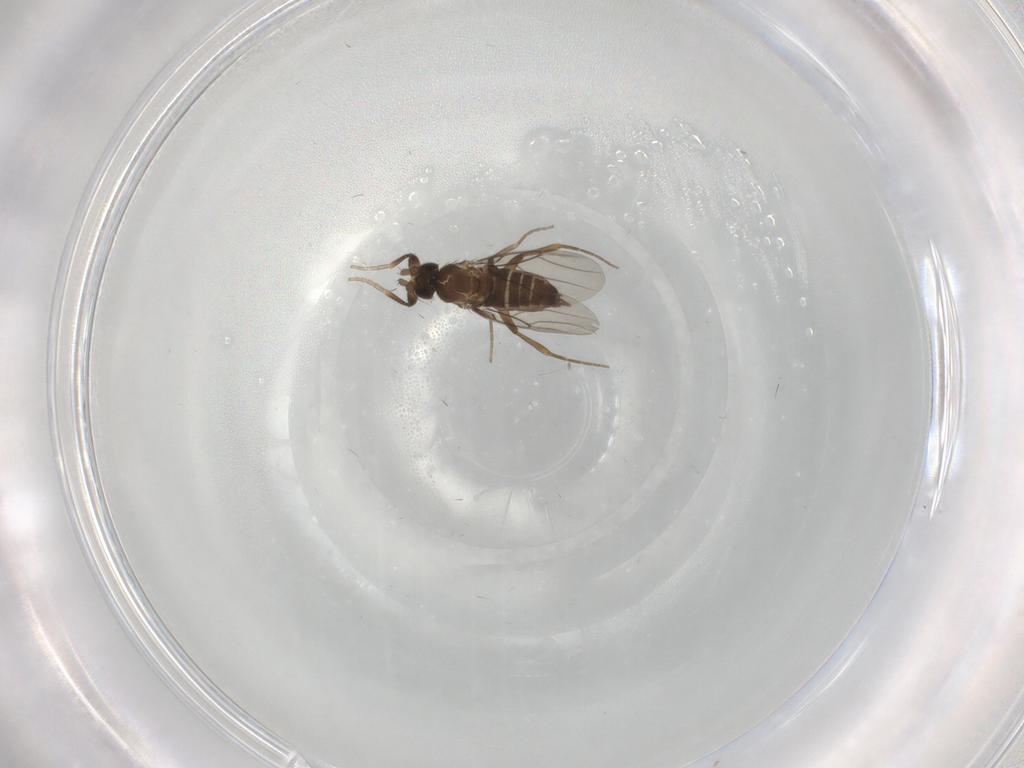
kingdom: Animalia
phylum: Arthropoda
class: Insecta
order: Diptera
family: Phoridae
